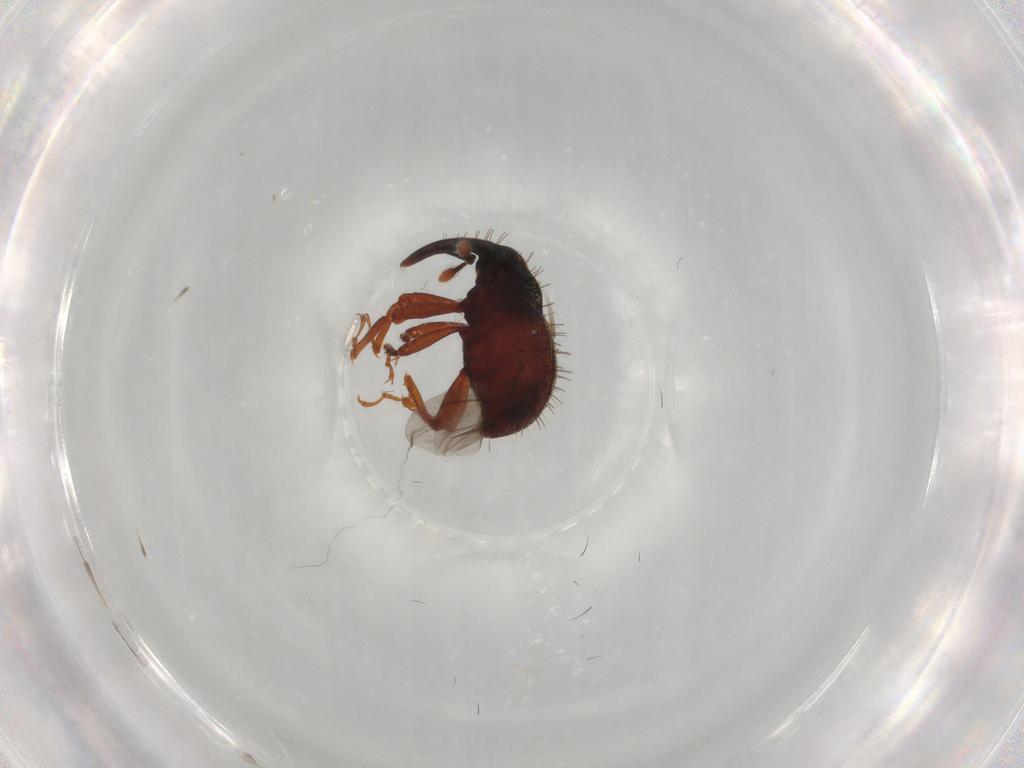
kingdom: Animalia
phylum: Arthropoda
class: Insecta
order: Coleoptera
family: Curculionidae
